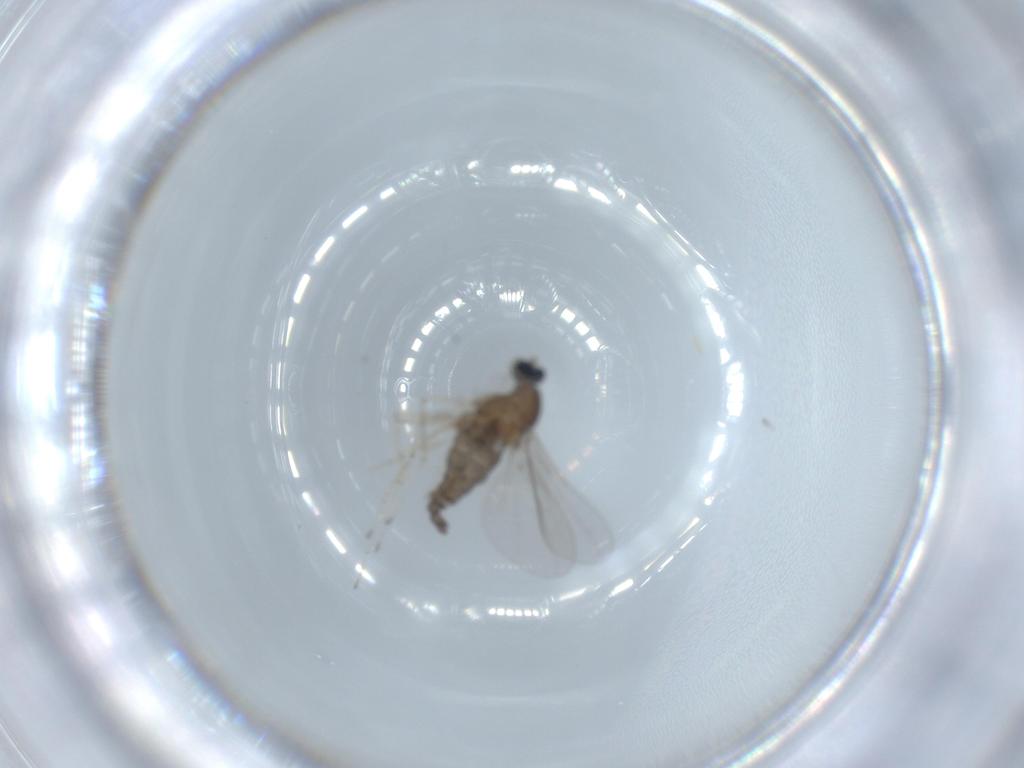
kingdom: Animalia
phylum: Arthropoda
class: Insecta
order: Diptera
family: Cecidomyiidae
